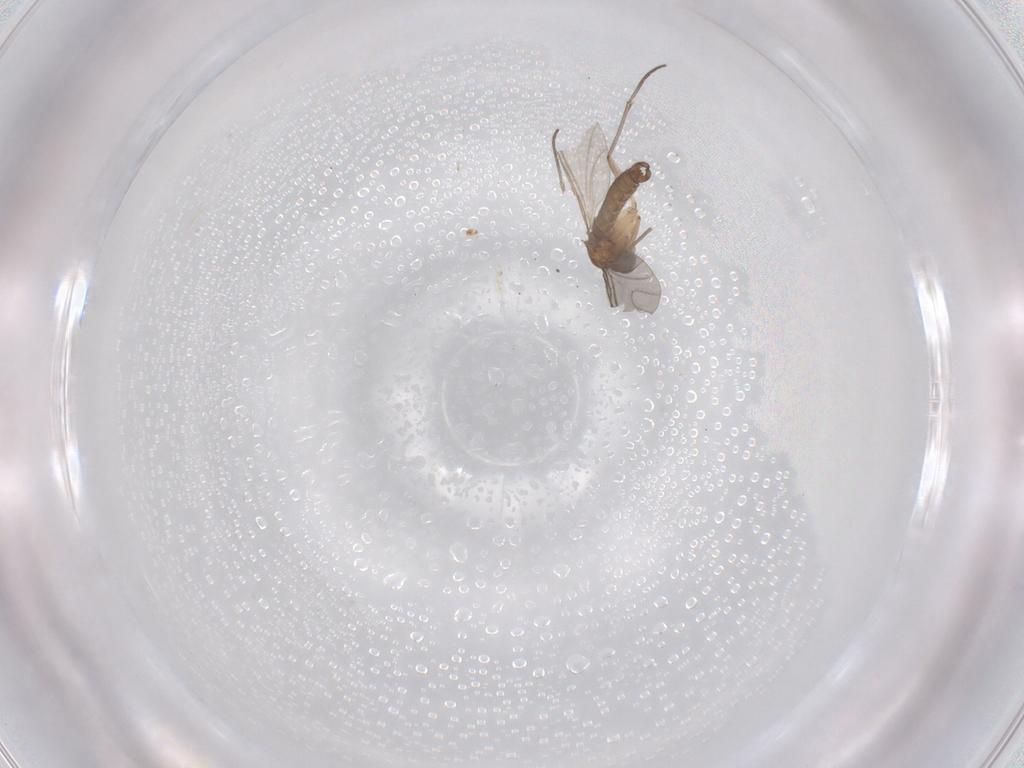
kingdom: Animalia
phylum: Arthropoda
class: Insecta
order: Diptera
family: Sciaridae
